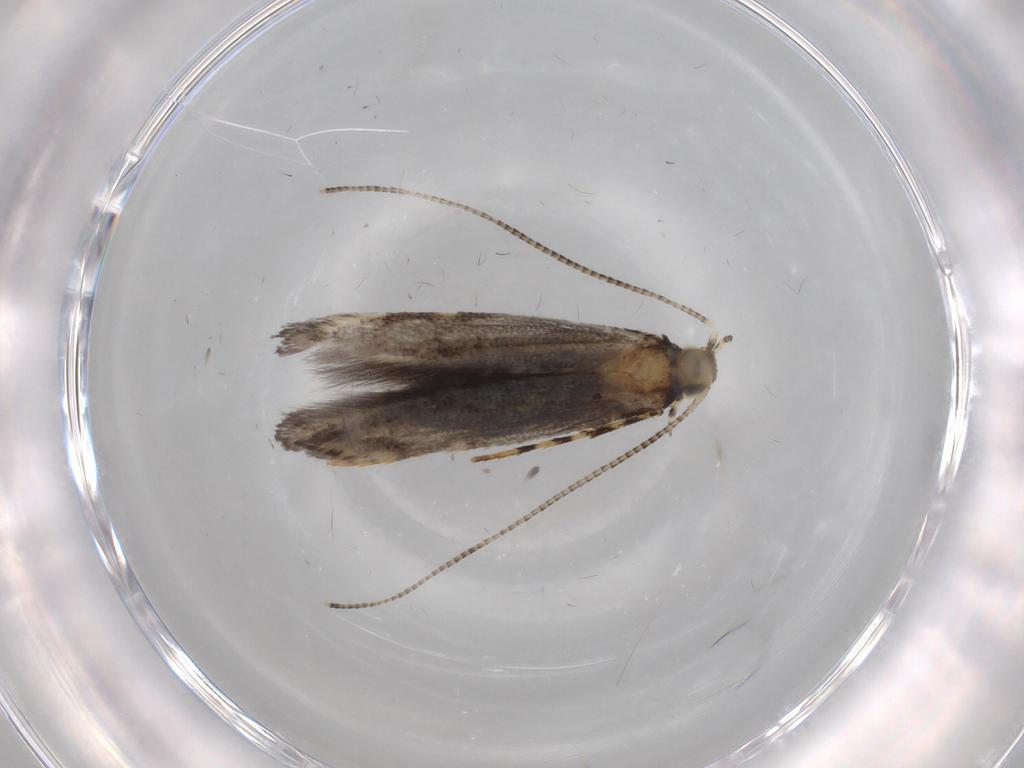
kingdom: Animalia
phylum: Arthropoda
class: Insecta
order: Lepidoptera
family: Gracillariidae
